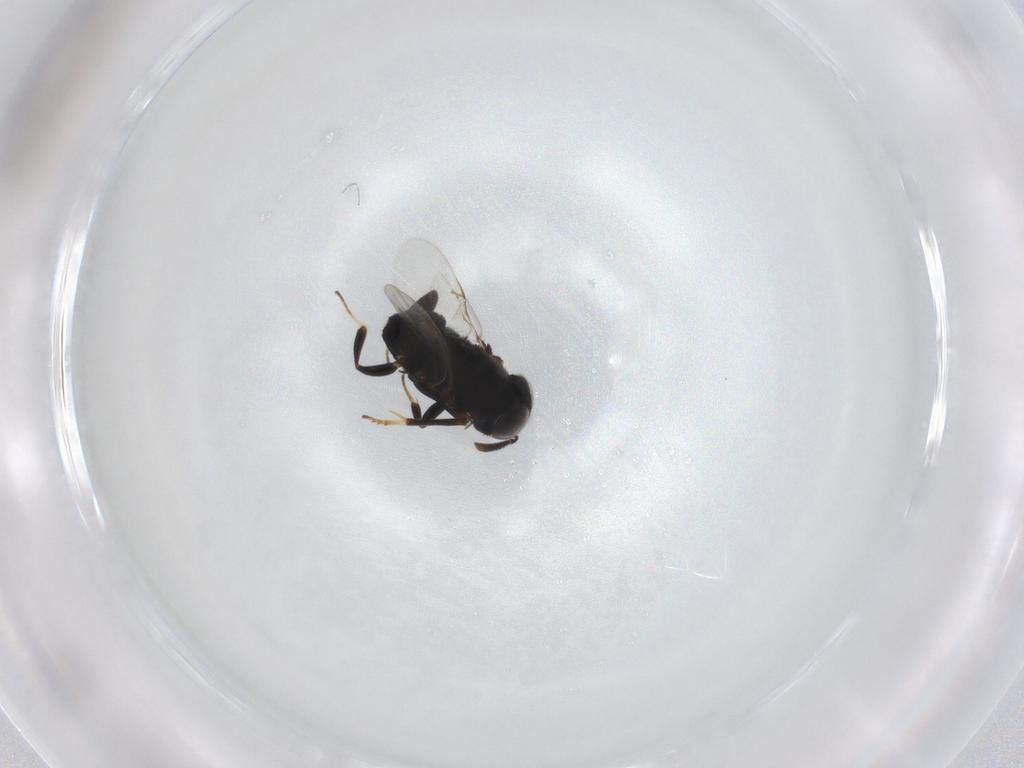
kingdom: Animalia
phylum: Arthropoda
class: Insecta
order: Hymenoptera
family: Encyrtidae
